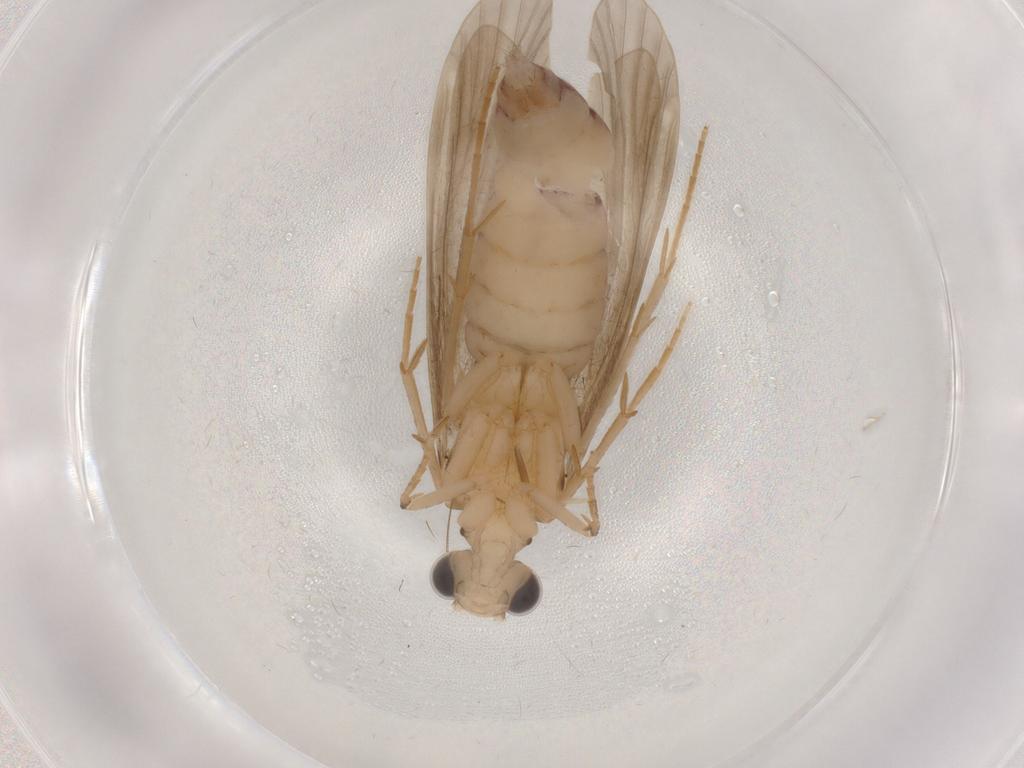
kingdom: Animalia
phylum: Arthropoda
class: Insecta
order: Trichoptera
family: Ecnomidae
